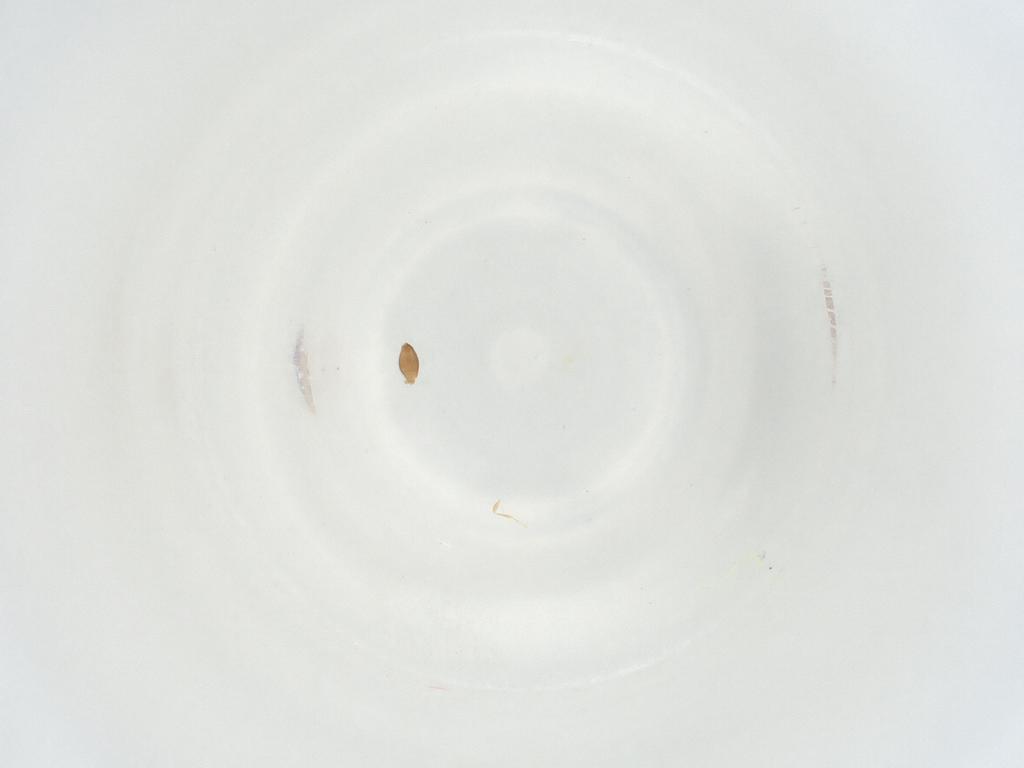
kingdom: Animalia
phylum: Arthropoda
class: Insecta
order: Hymenoptera
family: Platygastridae
